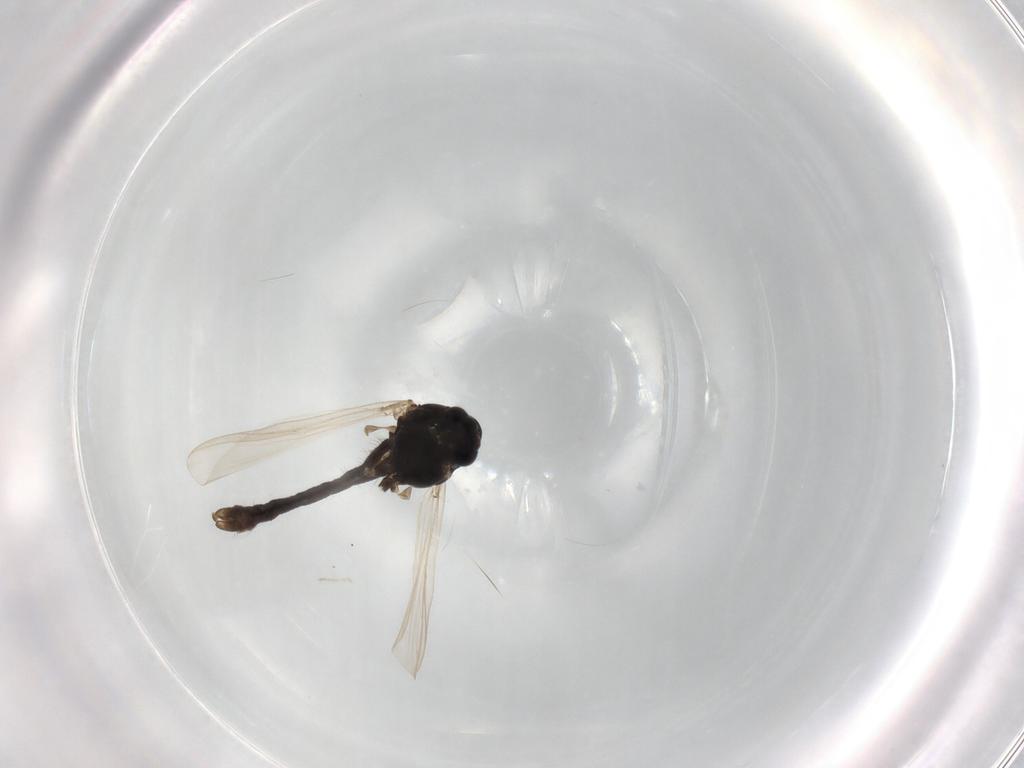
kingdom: Animalia
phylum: Arthropoda
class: Insecta
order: Diptera
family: Chironomidae
